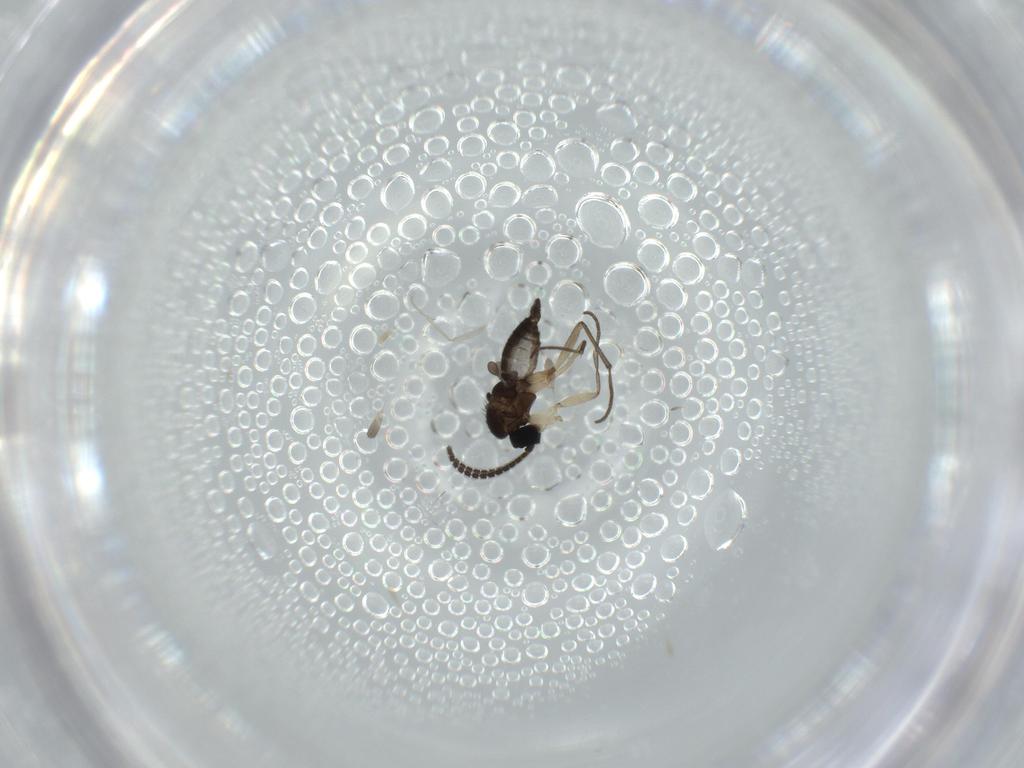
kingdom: Animalia
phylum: Arthropoda
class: Insecta
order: Diptera
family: Sciaridae
